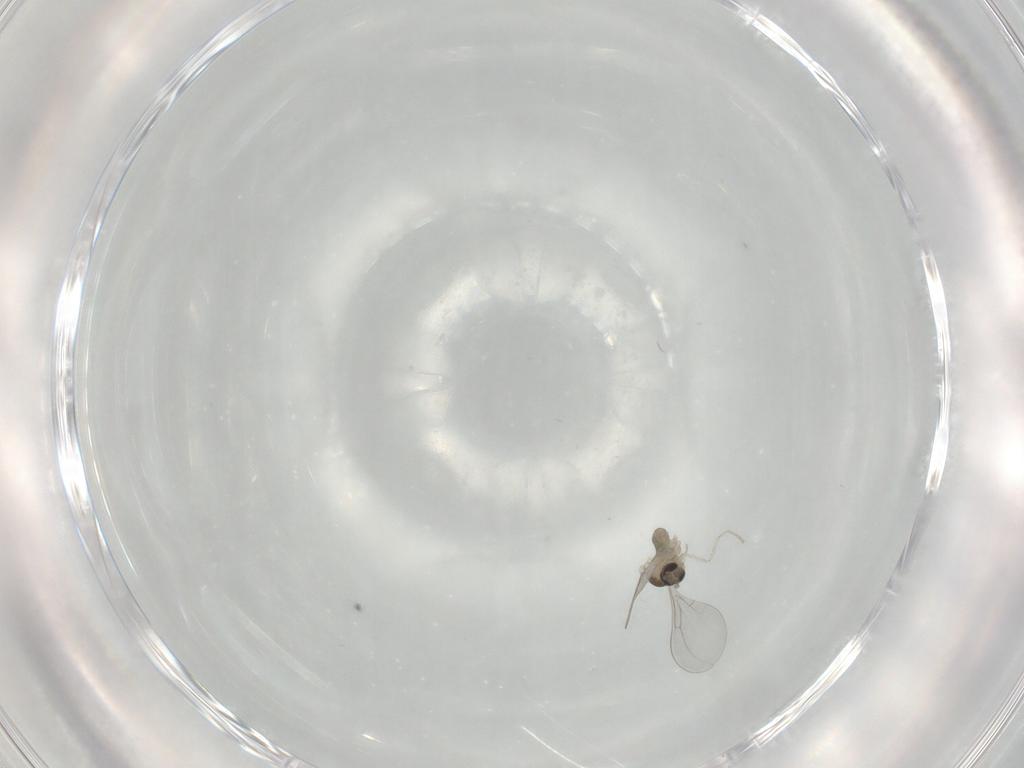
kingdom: Animalia
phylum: Arthropoda
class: Insecta
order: Diptera
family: Cecidomyiidae
